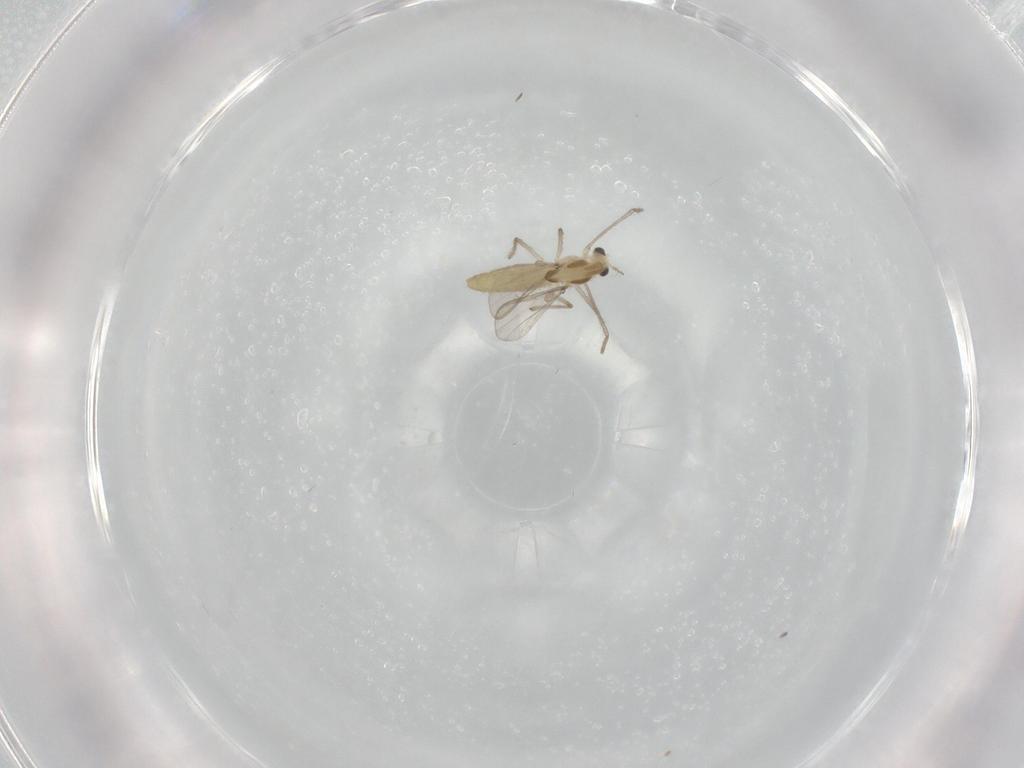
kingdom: Animalia
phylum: Arthropoda
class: Insecta
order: Diptera
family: Chironomidae
